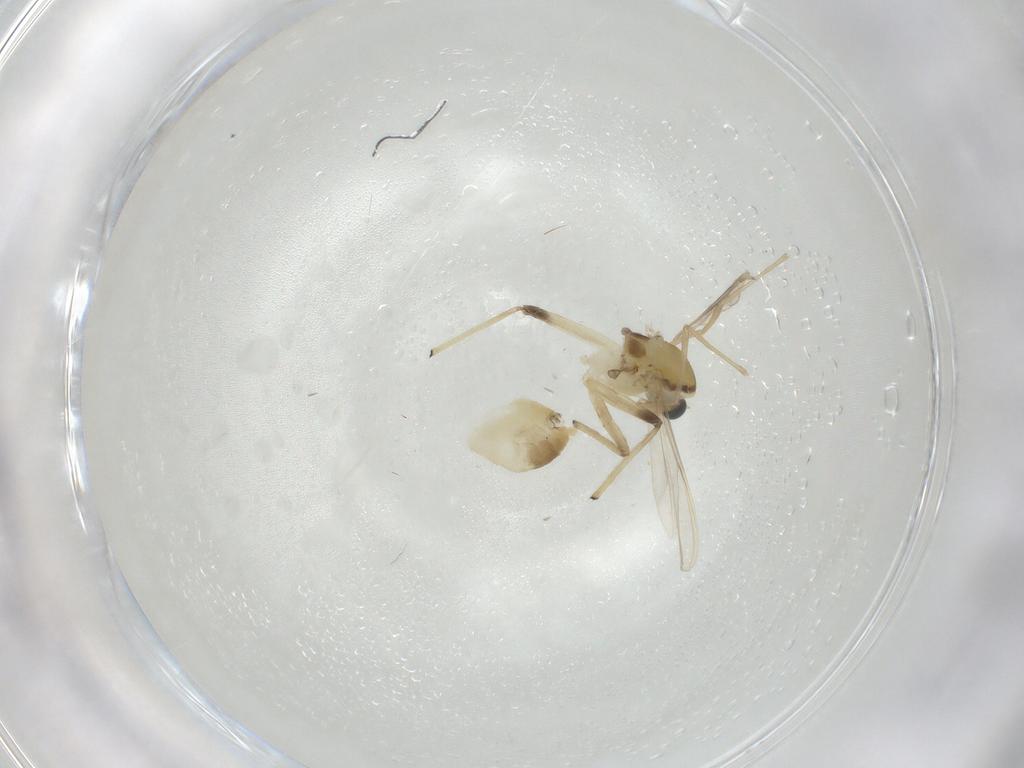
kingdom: Animalia
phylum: Arthropoda
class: Insecta
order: Diptera
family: Chironomidae
